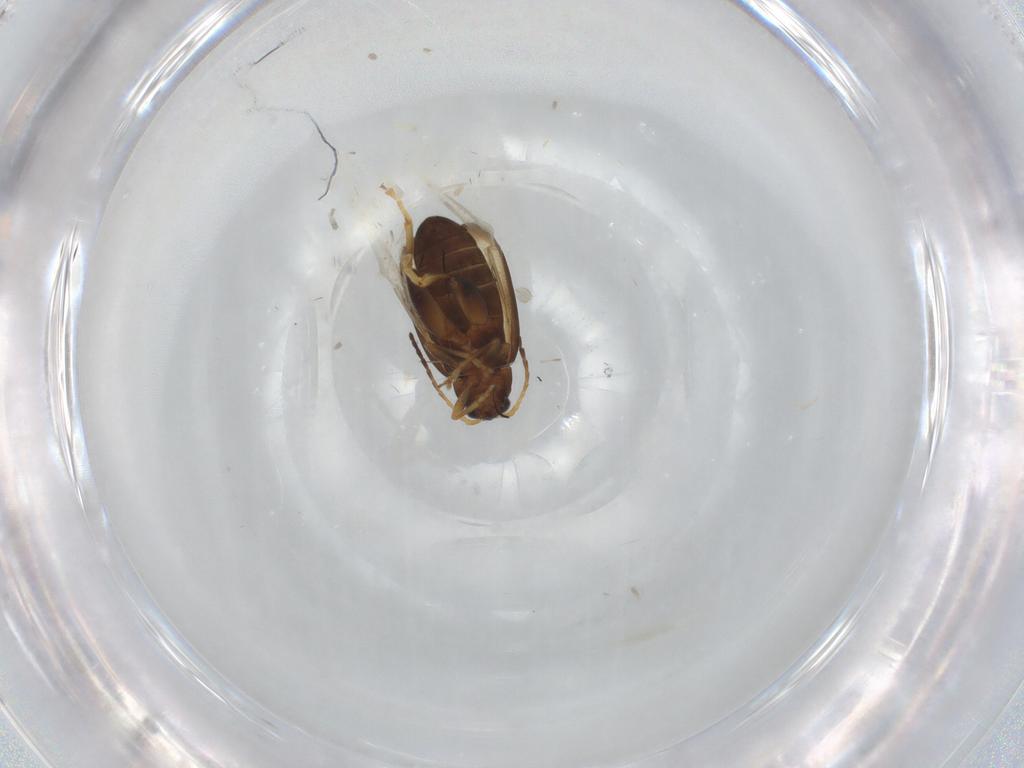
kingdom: Animalia
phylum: Arthropoda
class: Insecta
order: Coleoptera
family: Chrysomelidae
